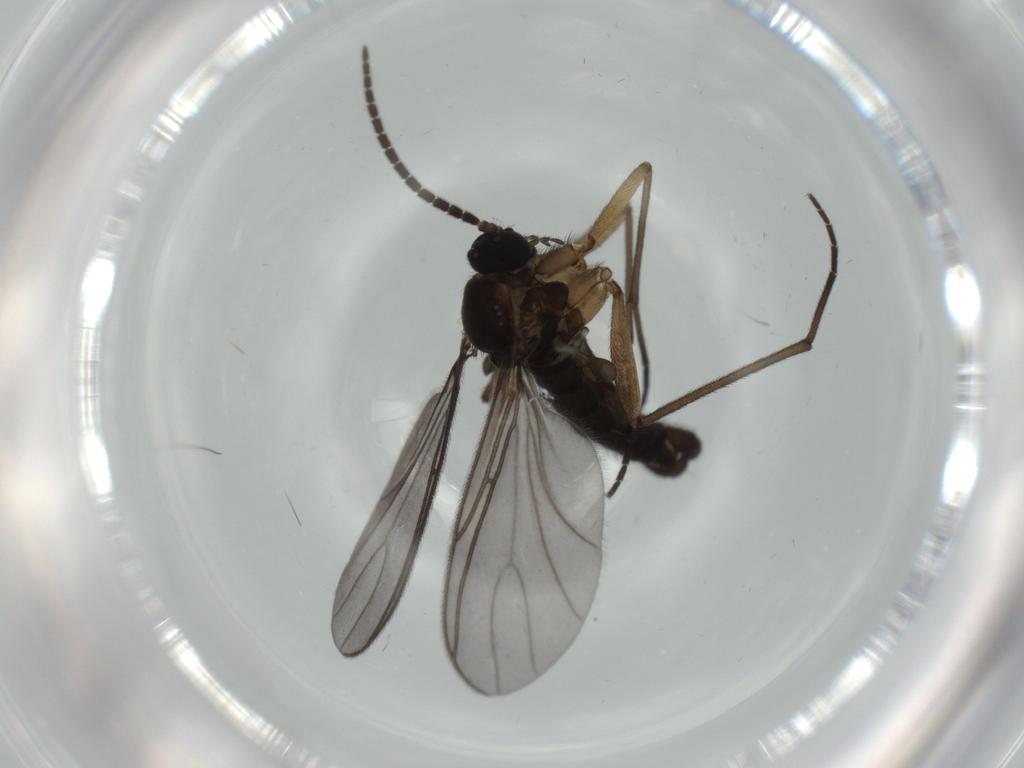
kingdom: Animalia
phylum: Arthropoda
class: Insecta
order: Diptera
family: Sciaridae
